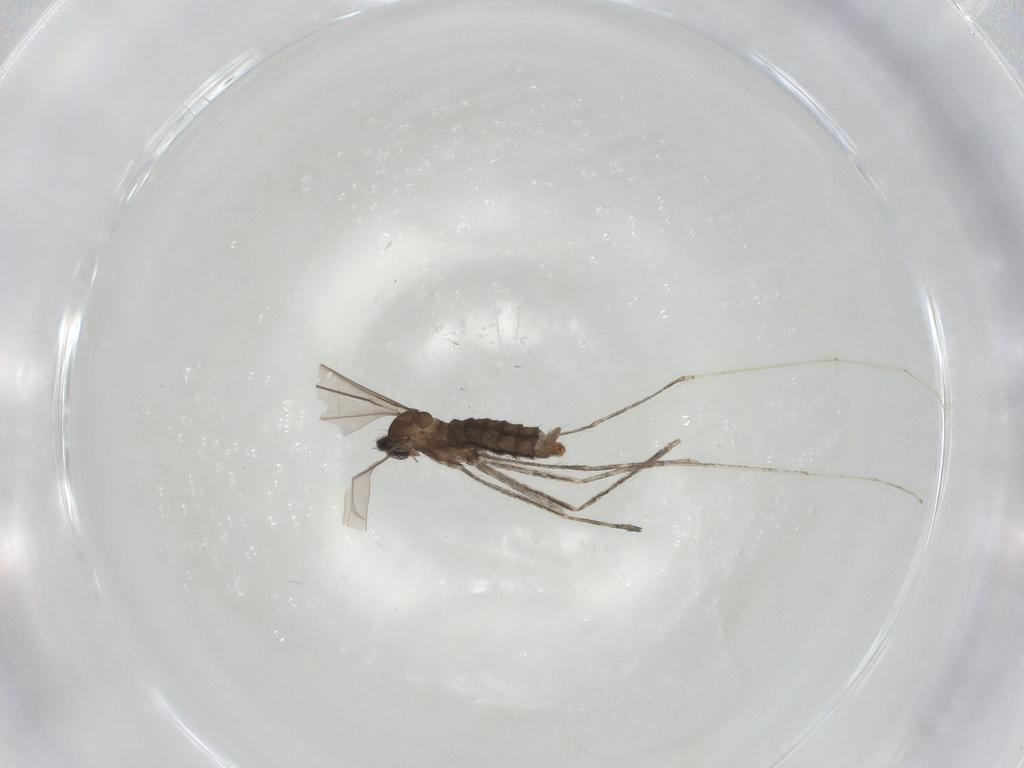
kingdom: Animalia
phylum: Arthropoda
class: Insecta
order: Diptera
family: Cecidomyiidae
